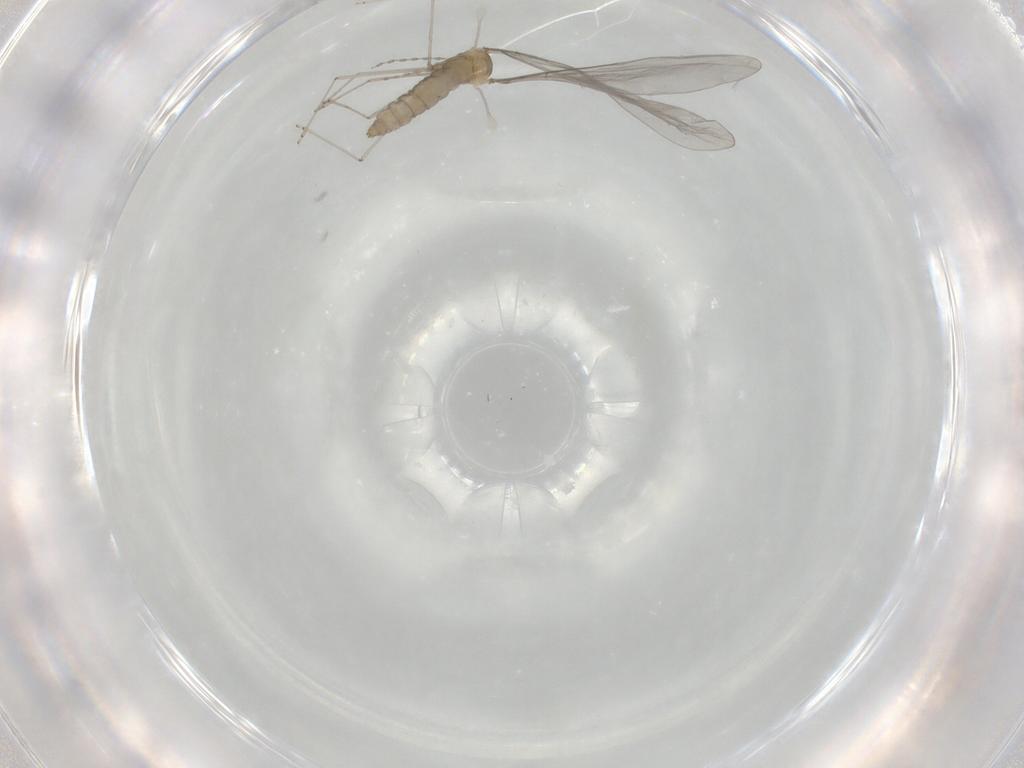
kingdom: Animalia
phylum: Arthropoda
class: Insecta
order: Diptera
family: Cecidomyiidae
